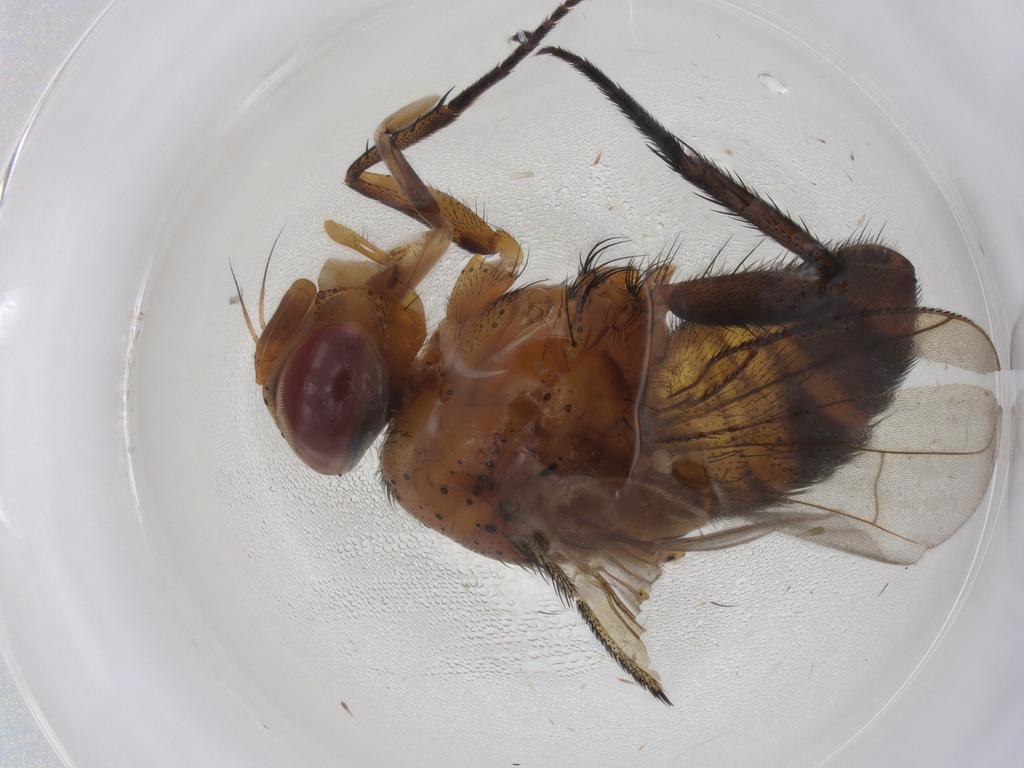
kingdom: Animalia
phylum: Arthropoda
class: Insecta
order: Diptera
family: Tachinidae
